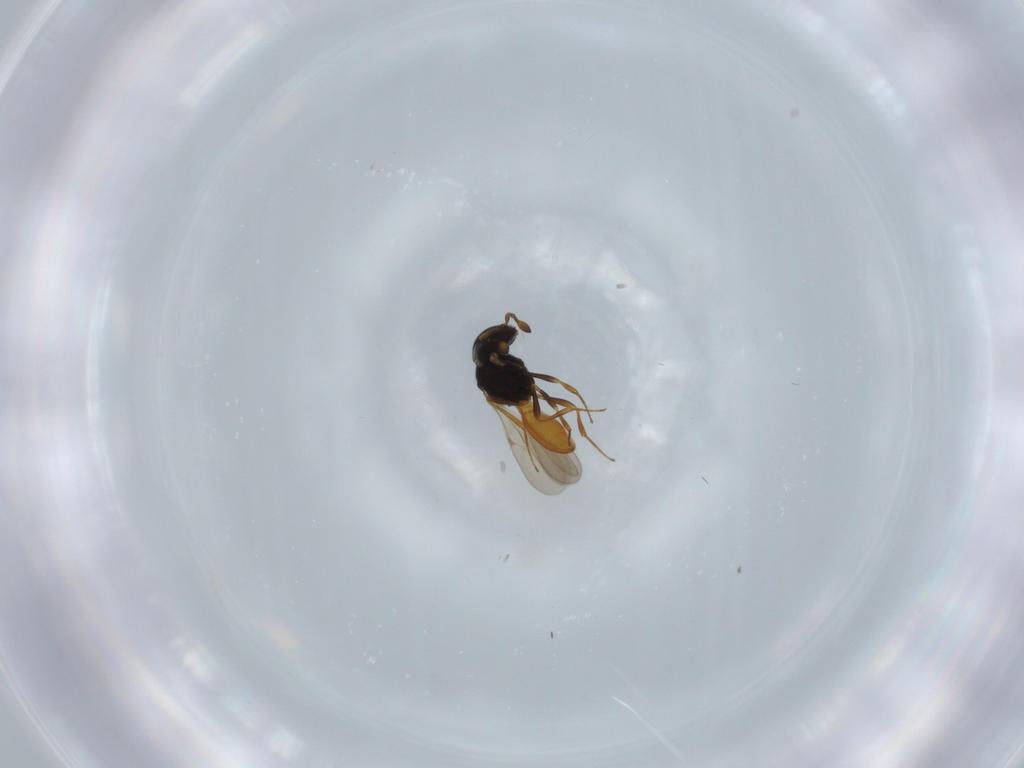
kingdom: Animalia
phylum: Arthropoda
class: Insecta
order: Hymenoptera
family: Scelionidae
